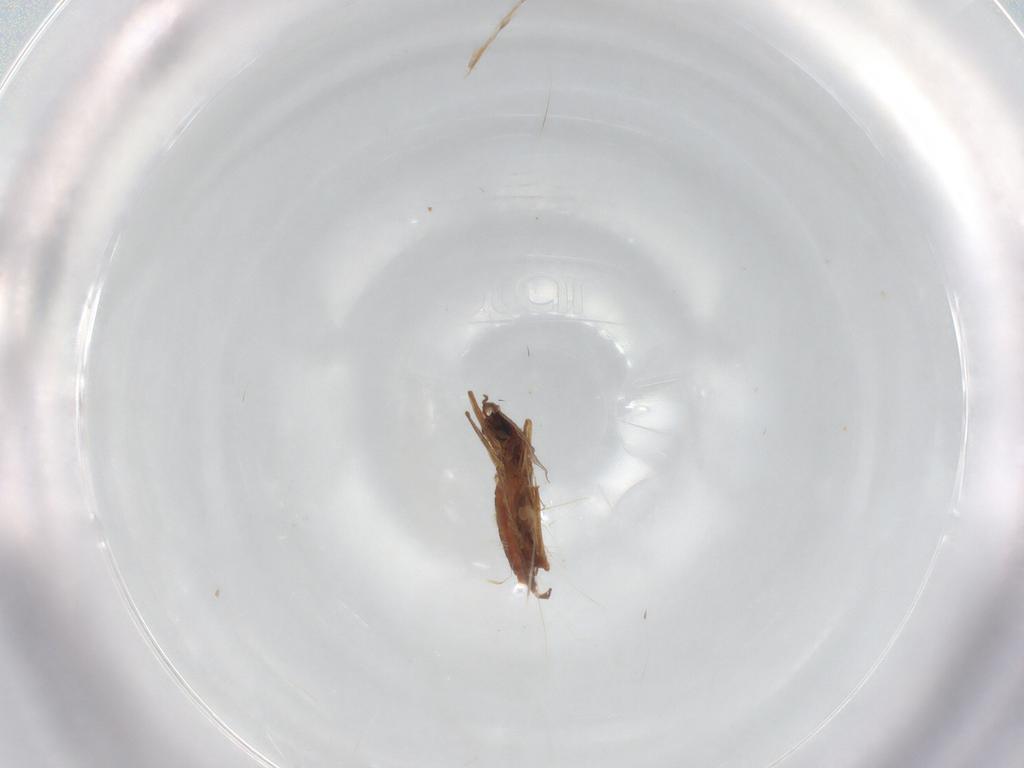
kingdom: Animalia
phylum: Arthropoda
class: Insecta
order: Diptera
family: Cecidomyiidae
